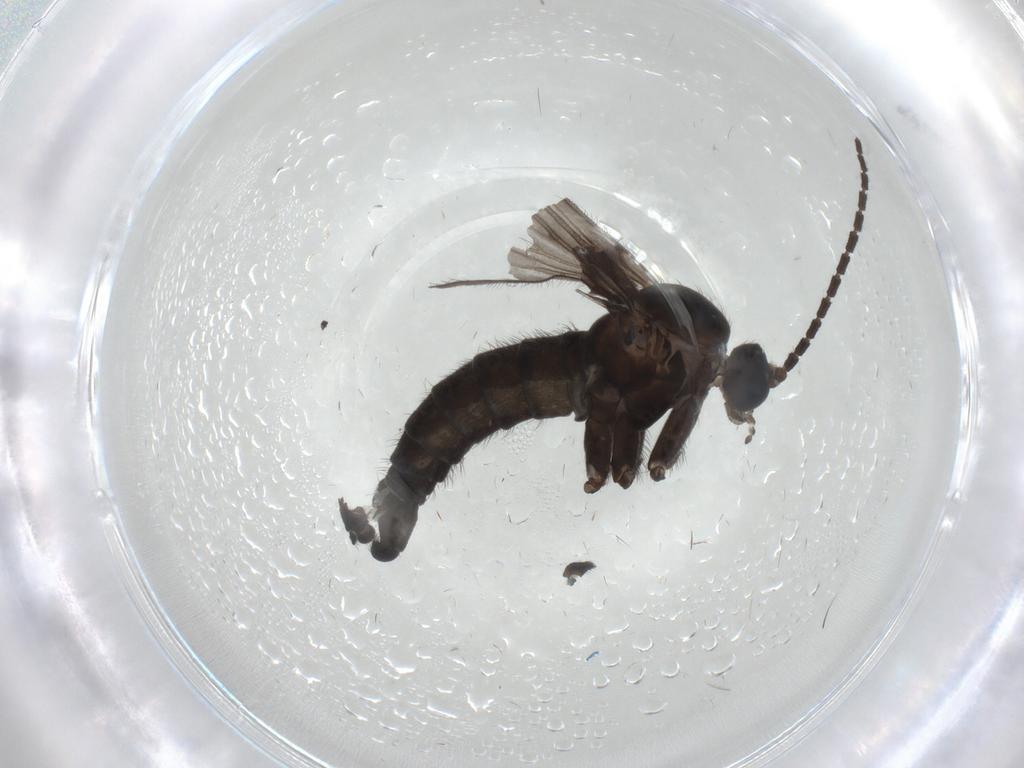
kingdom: Animalia
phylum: Arthropoda
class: Insecta
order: Diptera
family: Sciaridae
